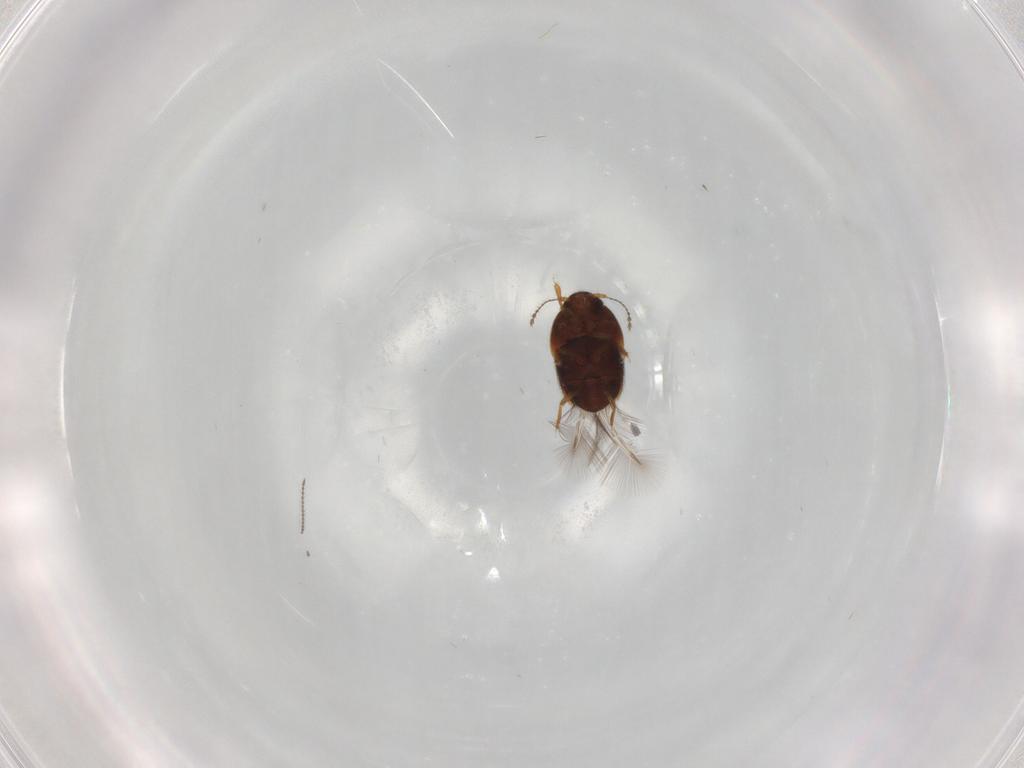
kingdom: Animalia
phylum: Arthropoda
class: Insecta
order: Coleoptera
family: Ptiliidae
